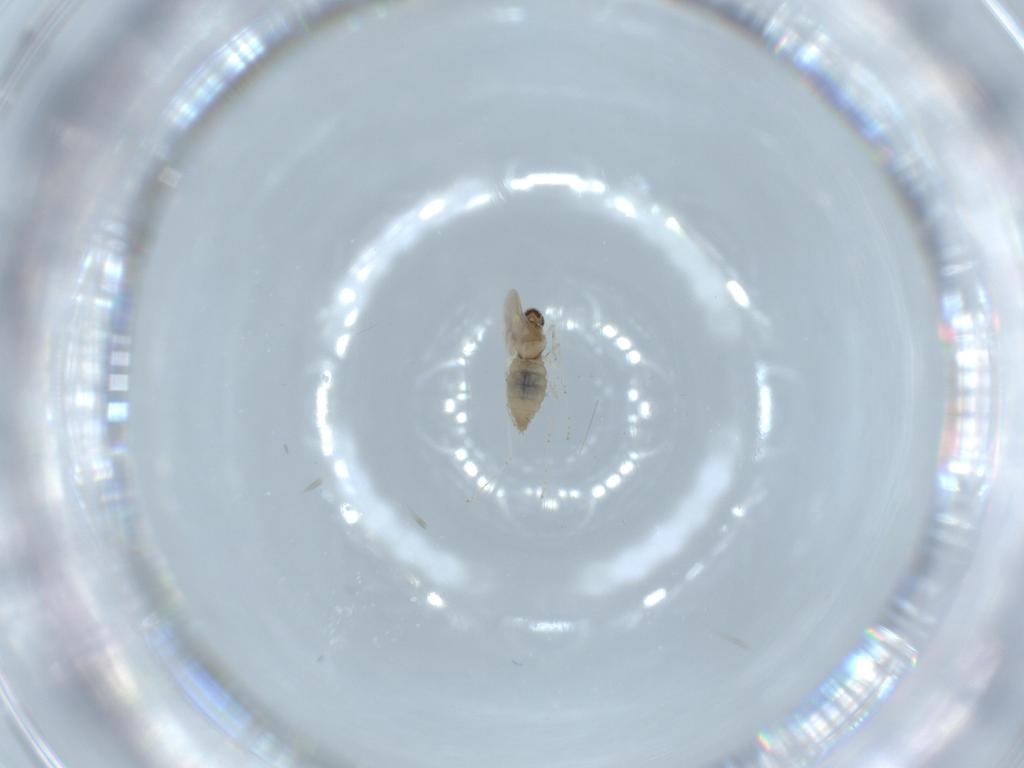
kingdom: Animalia
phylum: Arthropoda
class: Insecta
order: Diptera
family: Cecidomyiidae
